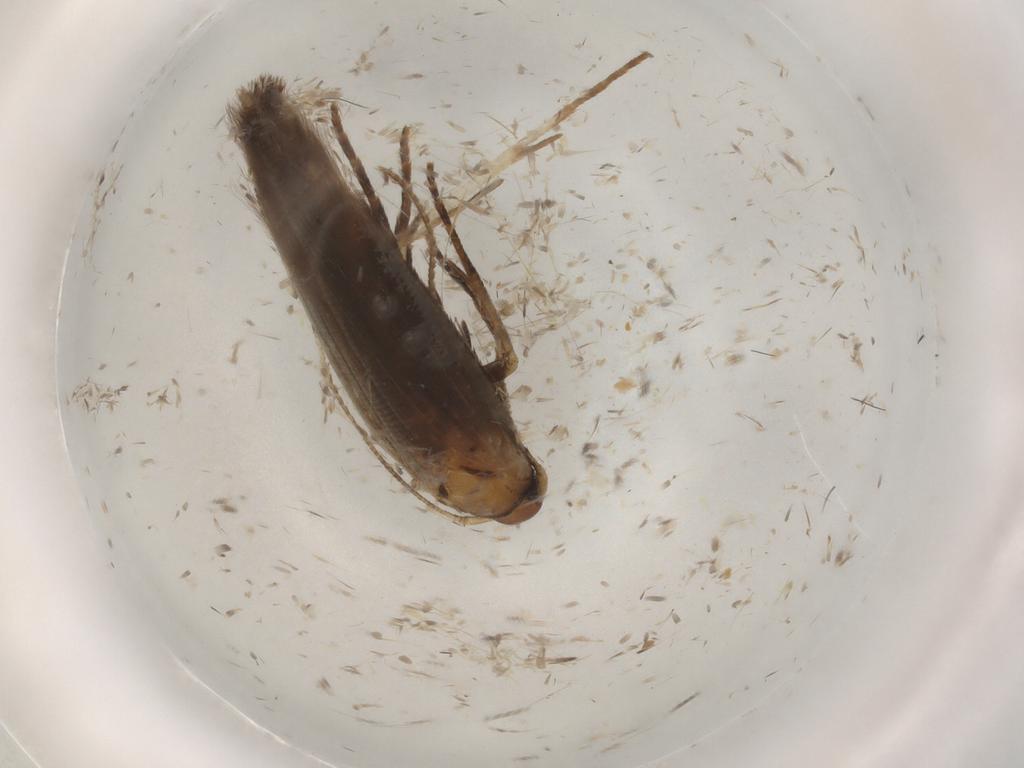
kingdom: Animalia
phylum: Arthropoda
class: Insecta
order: Lepidoptera
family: Cosmopterigidae
